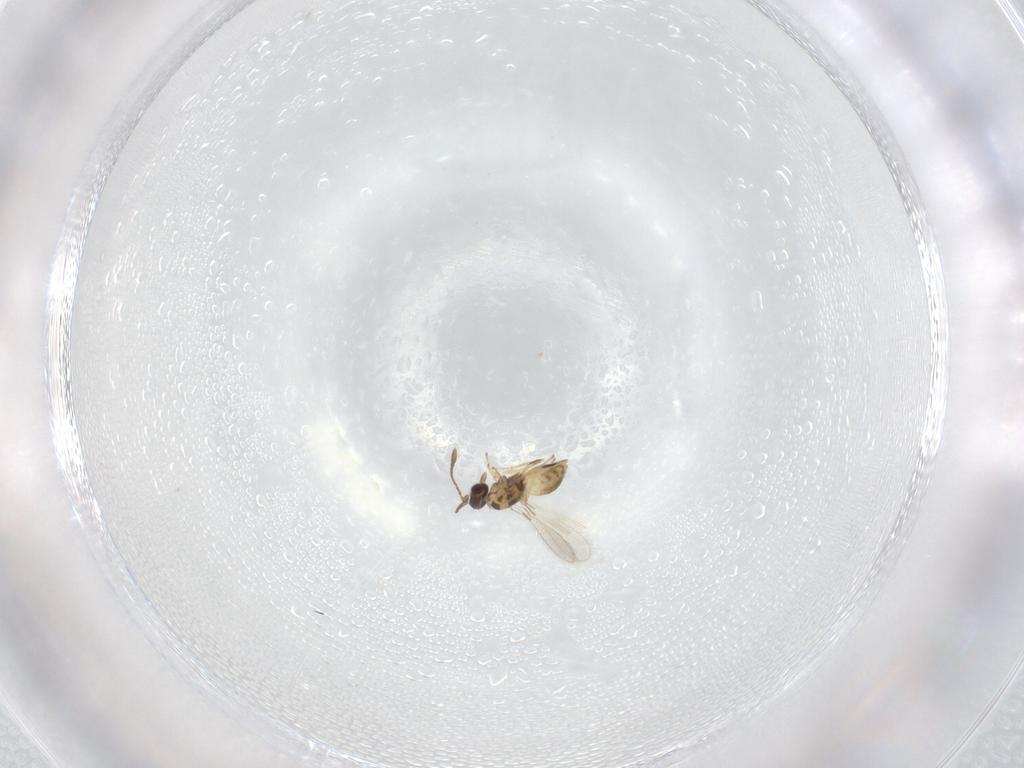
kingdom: Animalia
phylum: Arthropoda
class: Insecta
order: Hymenoptera
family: Mymaridae
